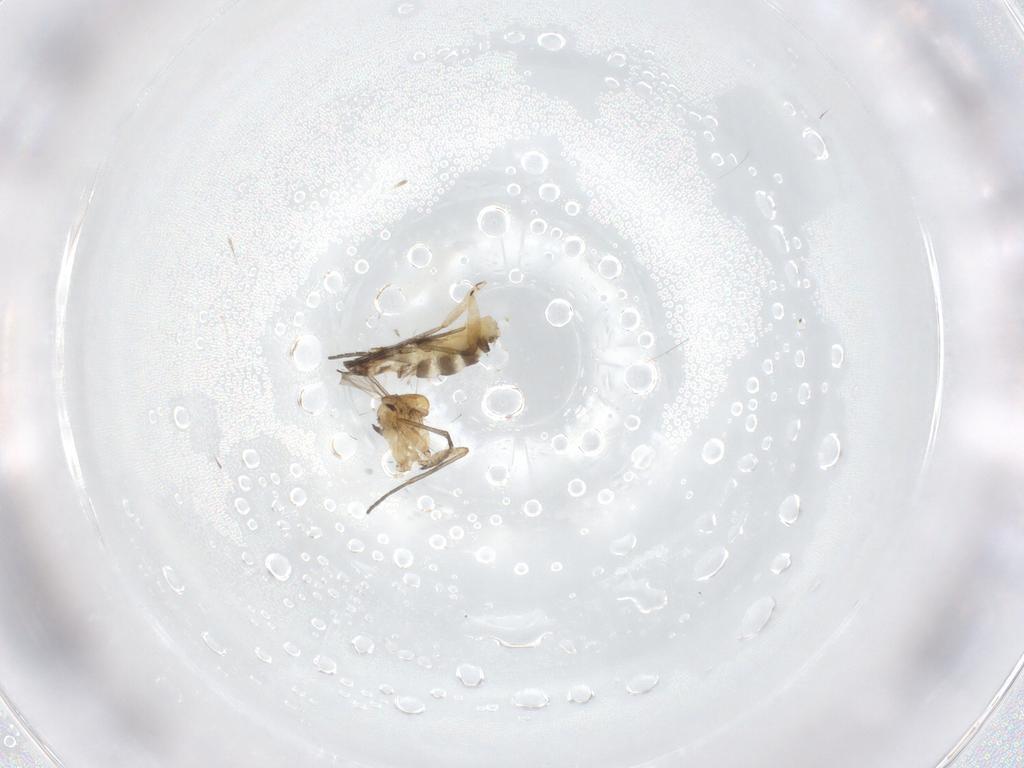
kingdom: Animalia
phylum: Arthropoda
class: Insecta
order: Diptera
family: Cecidomyiidae
